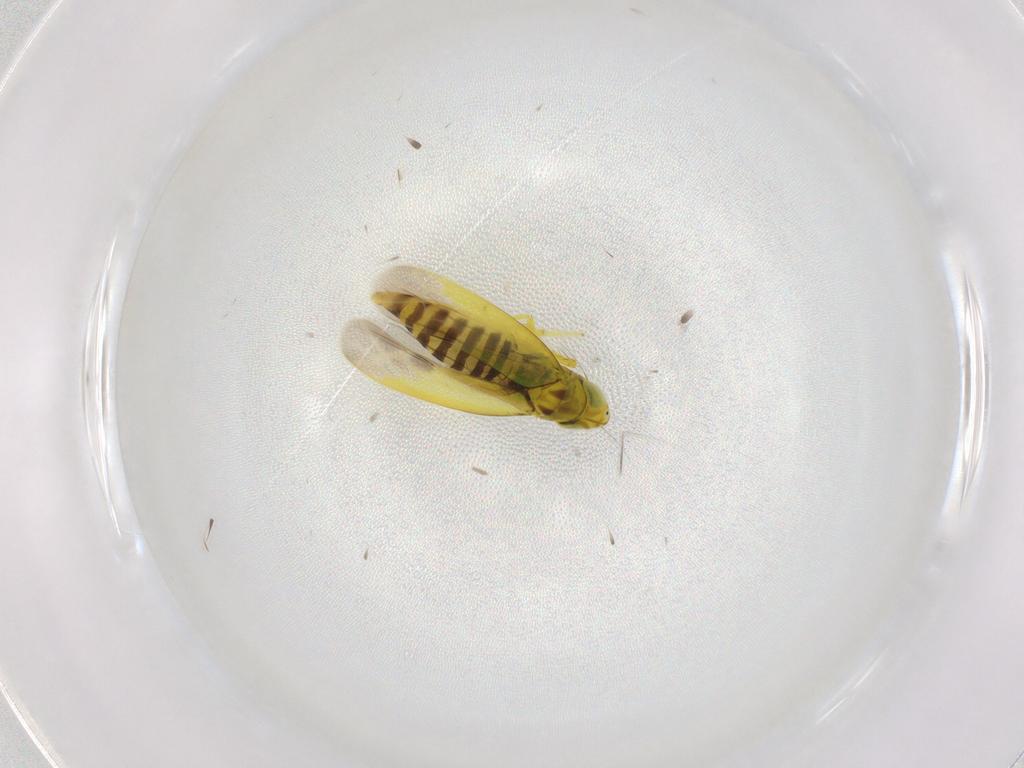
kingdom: Animalia
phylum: Arthropoda
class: Insecta
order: Hemiptera
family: Cicadellidae
